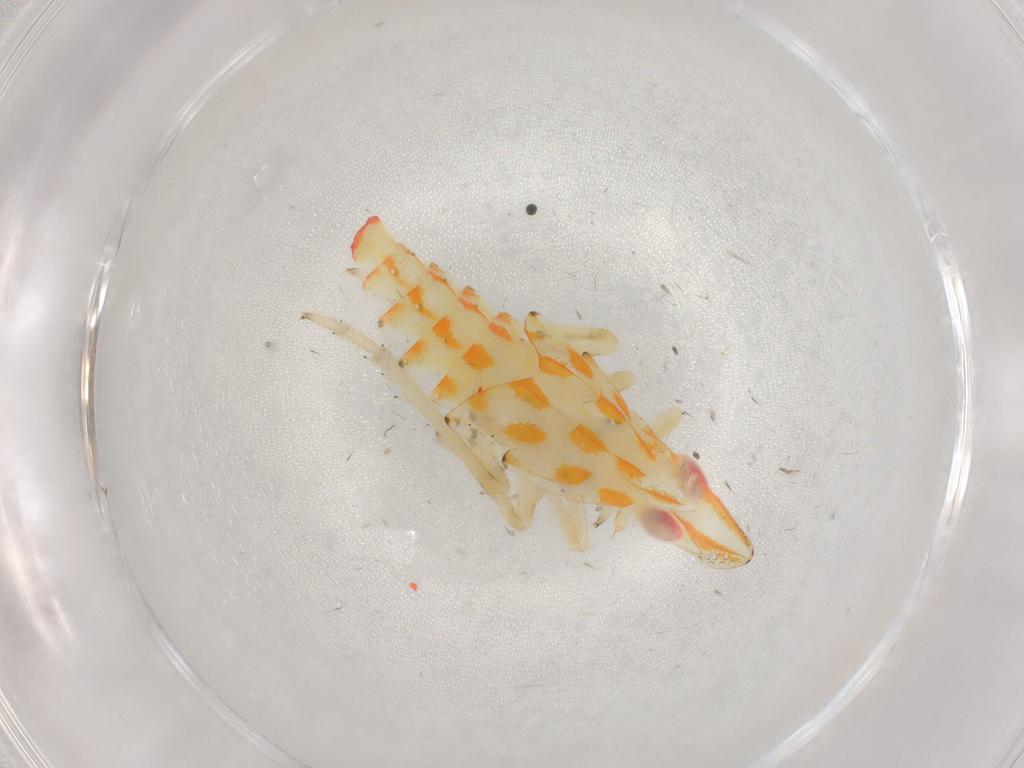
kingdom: Animalia
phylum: Arthropoda
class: Insecta
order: Hemiptera
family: Tropiduchidae
